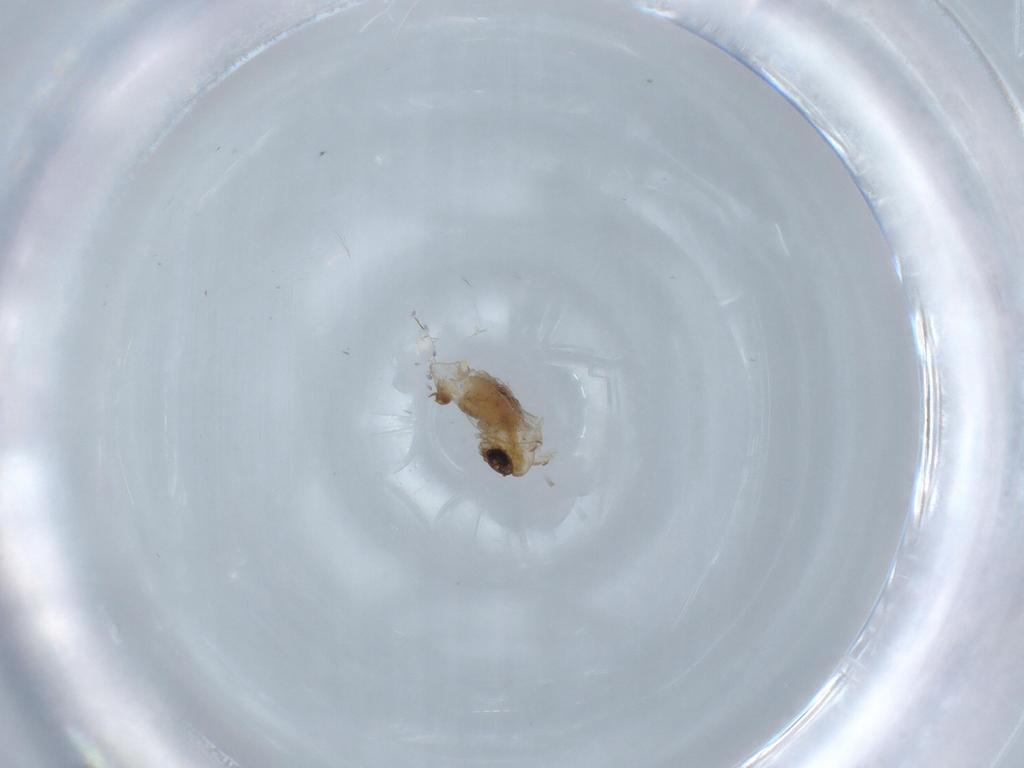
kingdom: Animalia
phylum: Arthropoda
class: Insecta
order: Diptera
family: Psychodidae
